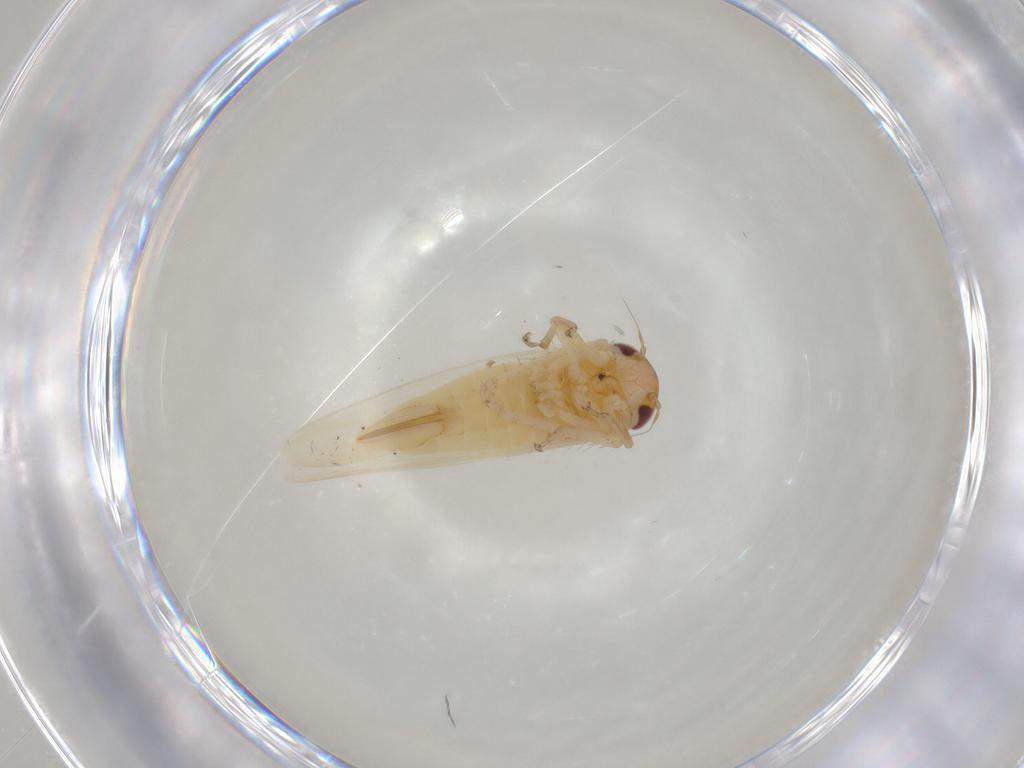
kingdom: Animalia
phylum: Arthropoda
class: Insecta
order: Hemiptera
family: Cicadellidae
